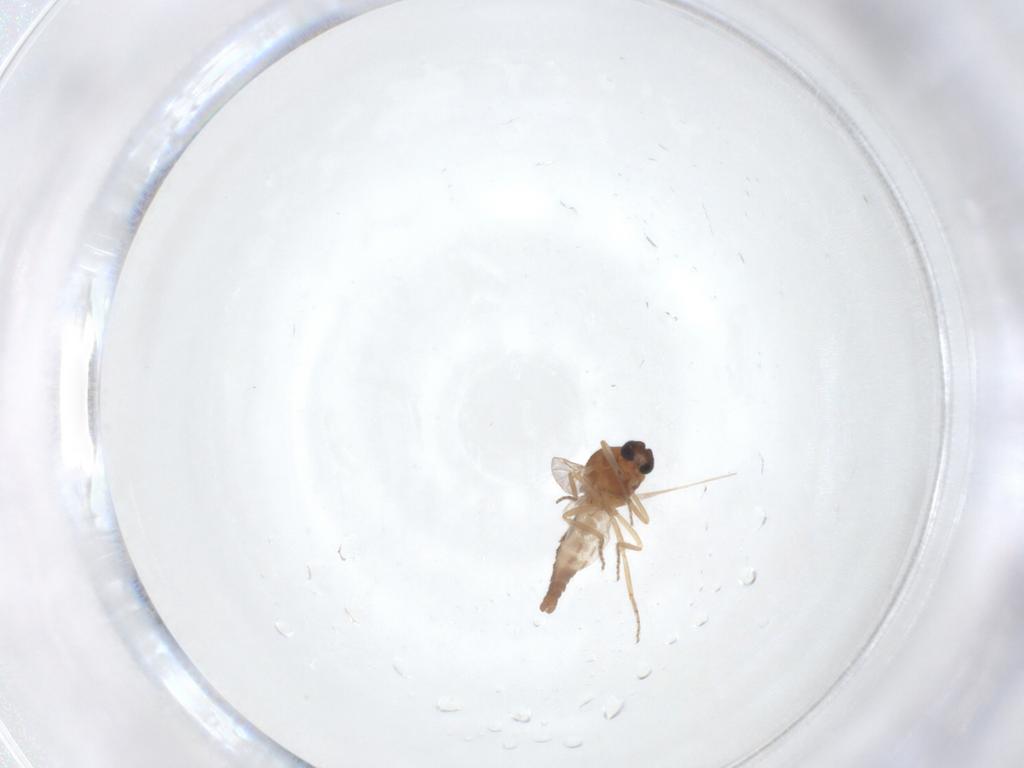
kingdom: Animalia
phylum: Arthropoda
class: Insecta
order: Diptera
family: Ceratopogonidae
